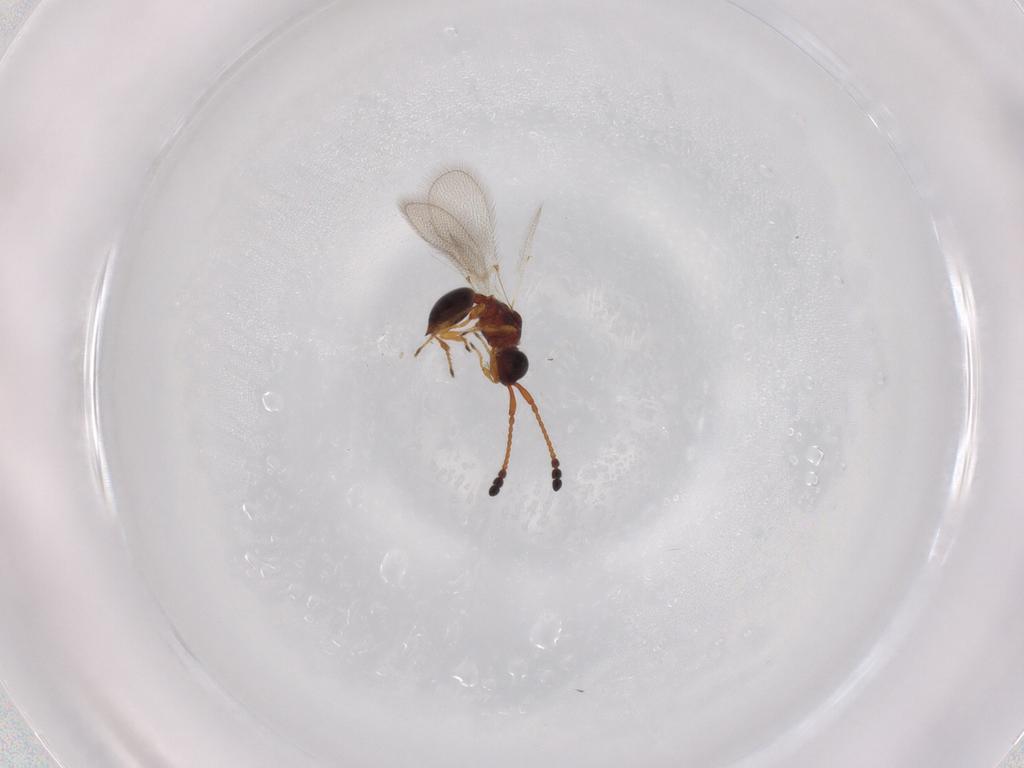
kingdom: Animalia
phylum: Arthropoda
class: Insecta
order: Hymenoptera
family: Diapriidae
